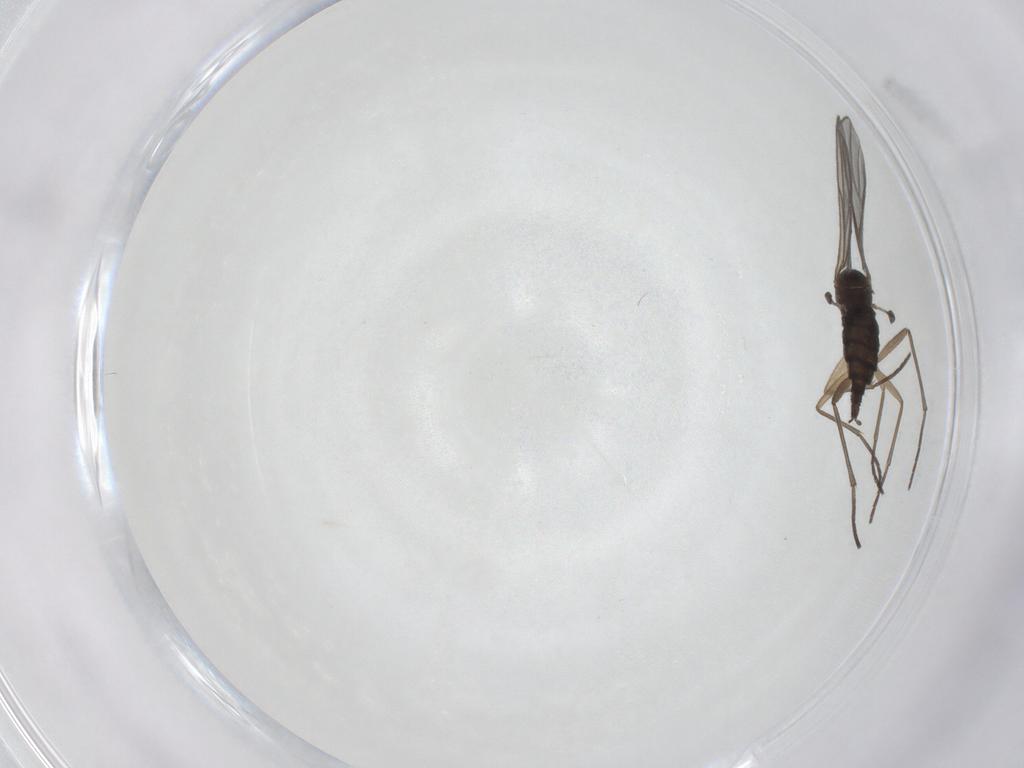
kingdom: Animalia
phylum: Arthropoda
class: Insecta
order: Diptera
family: Sciaridae
